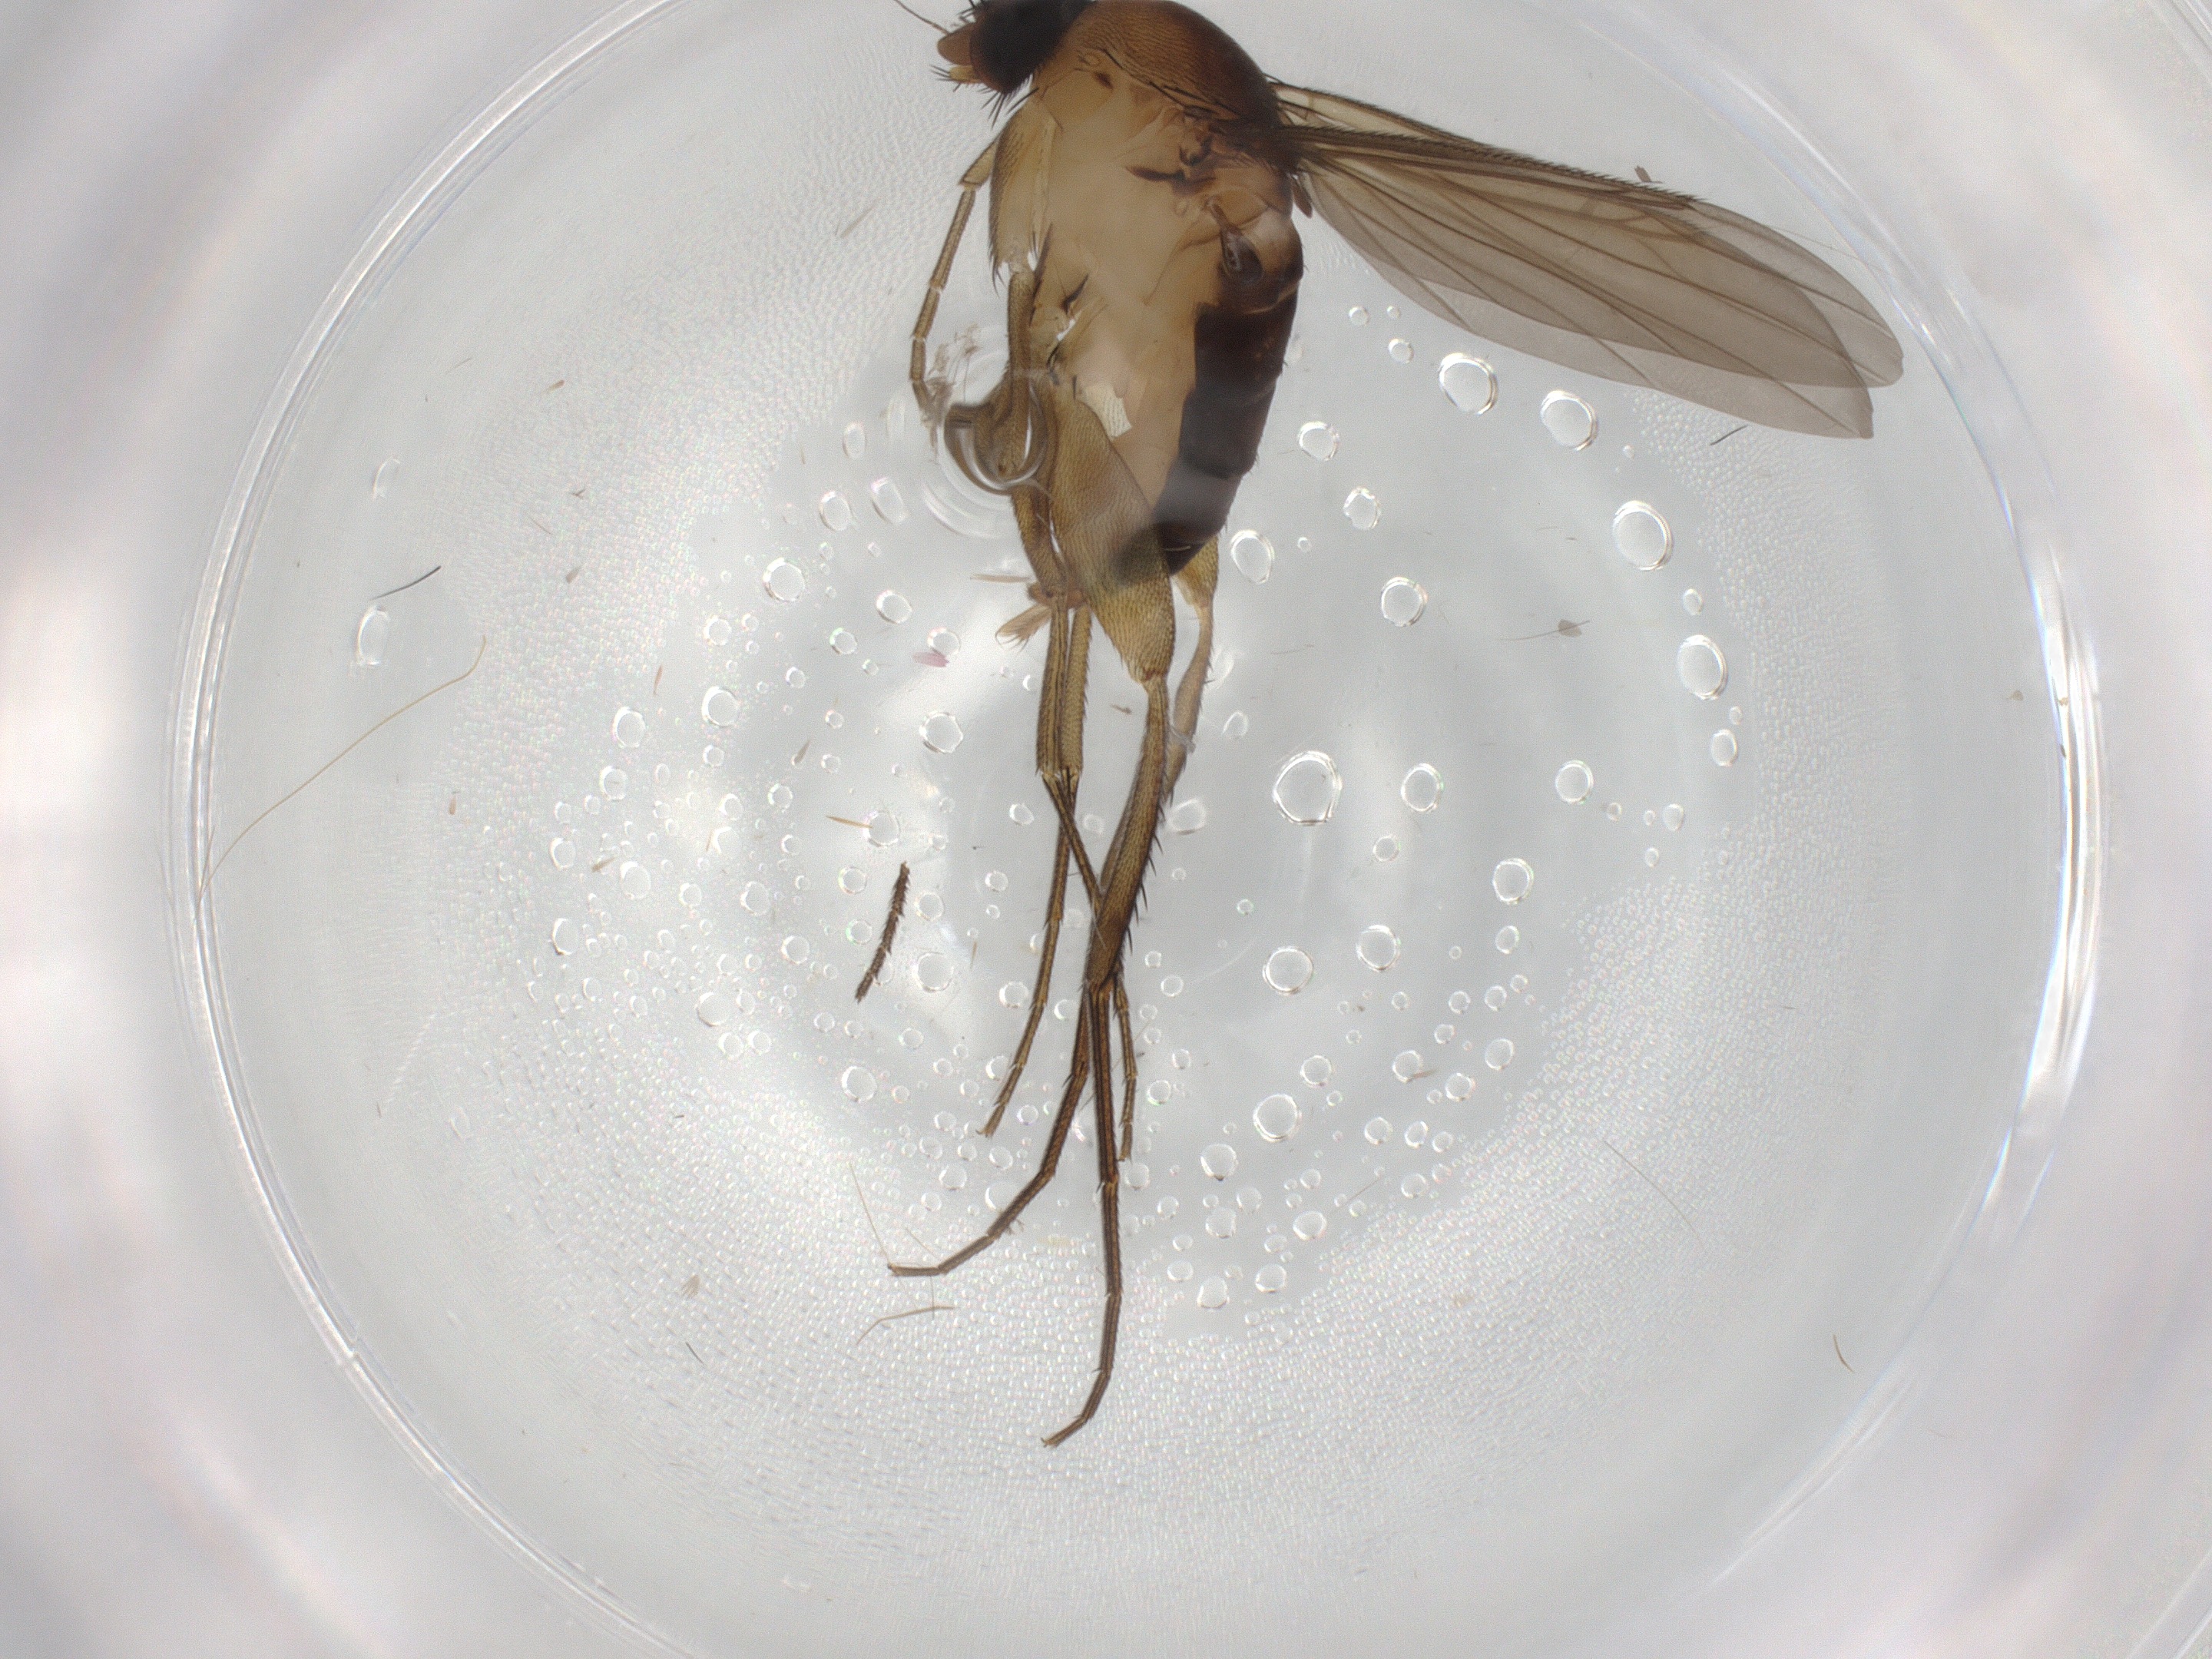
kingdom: Animalia
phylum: Arthropoda
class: Insecta
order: Diptera
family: Phoridae
